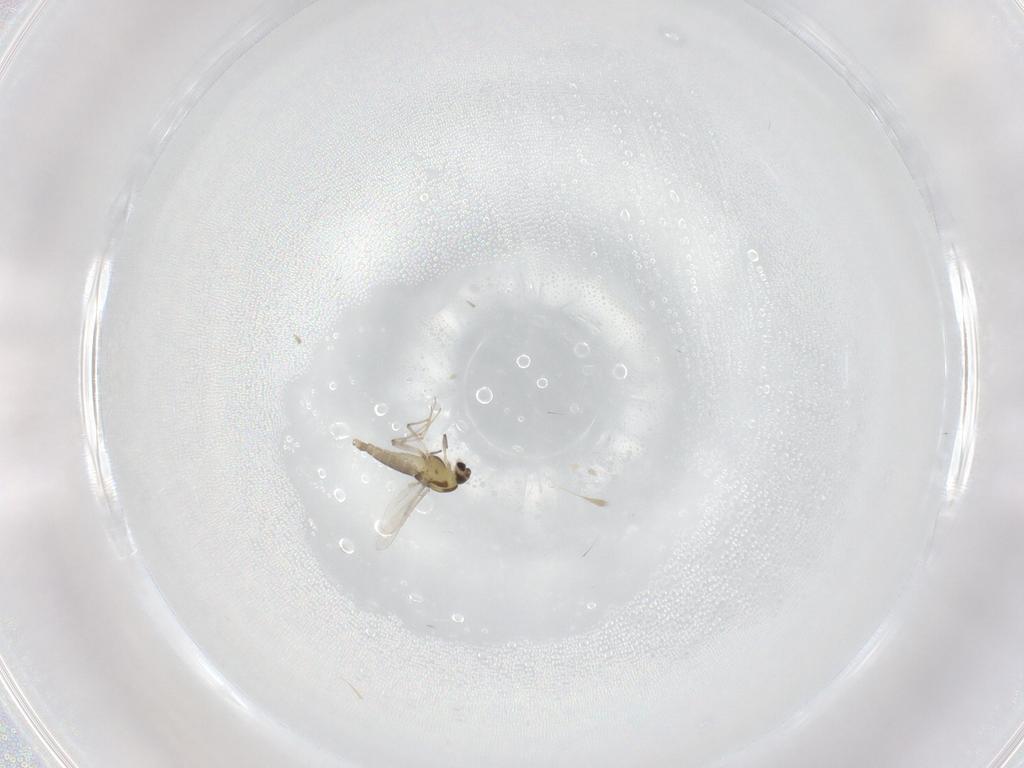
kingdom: Animalia
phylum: Arthropoda
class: Insecta
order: Diptera
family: Chironomidae
